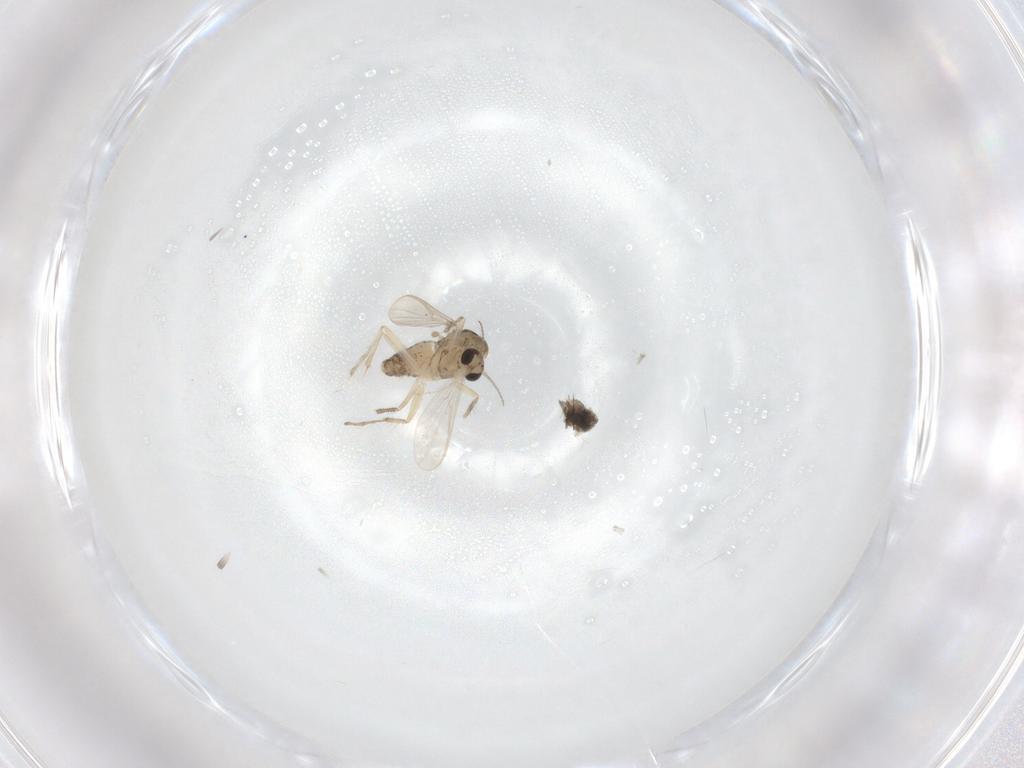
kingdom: Animalia
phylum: Arthropoda
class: Insecta
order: Diptera
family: Chironomidae
